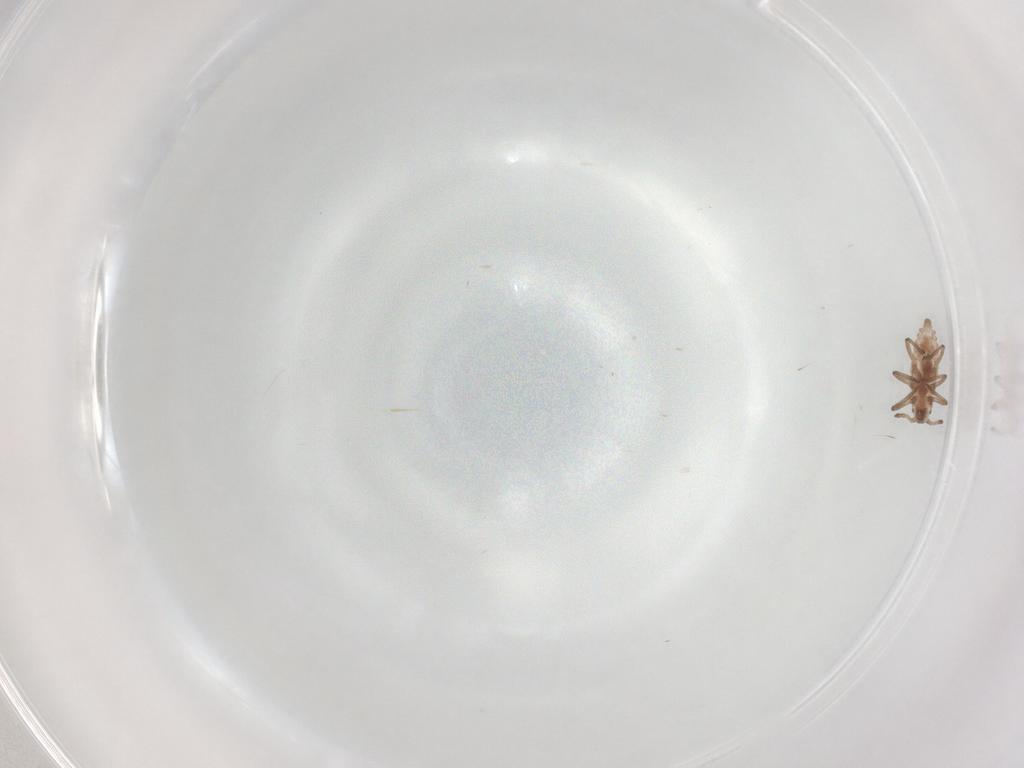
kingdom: Animalia
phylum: Arthropoda
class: Insecta
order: Hemiptera
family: Aphididae
